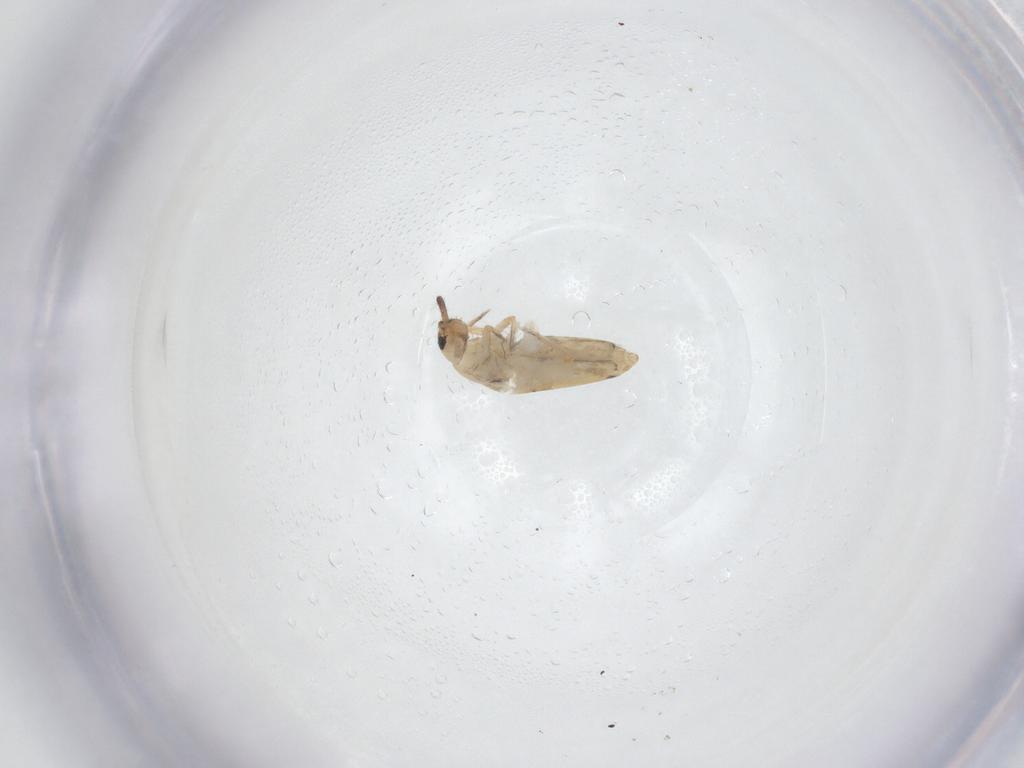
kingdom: Animalia
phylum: Arthropoda
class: Collembola
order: Entomobryomorpha
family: Entomobryidae
